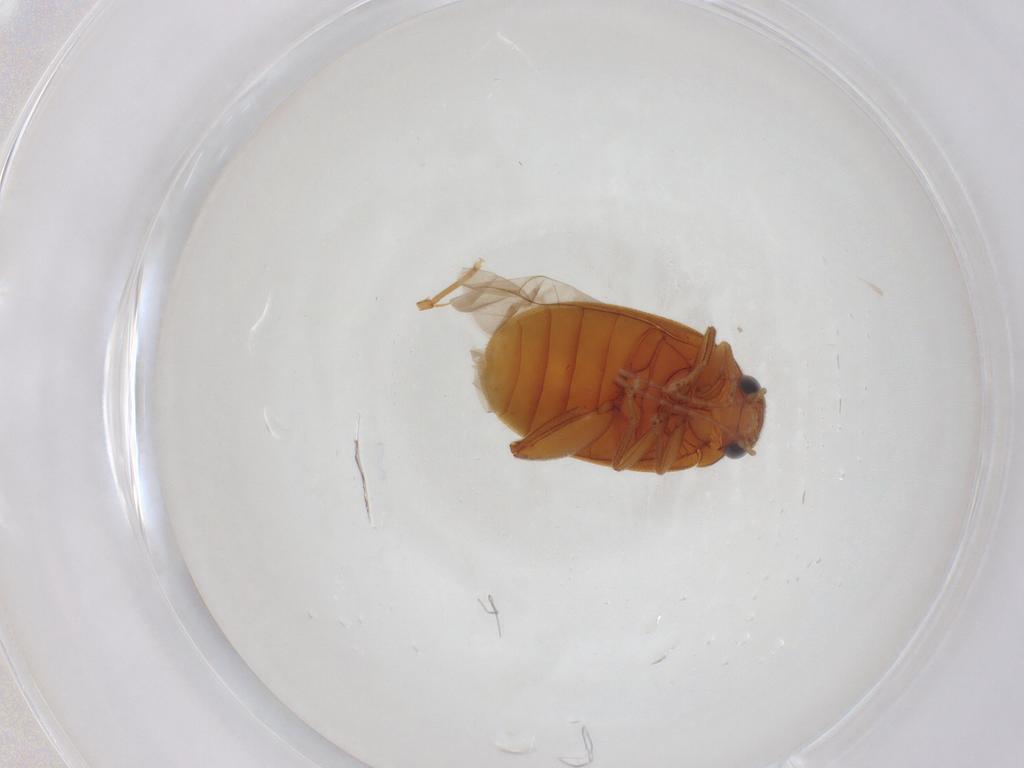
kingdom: Animalia
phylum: Arthropoda
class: Insecta
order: Coleoptera
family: Scirtidae
